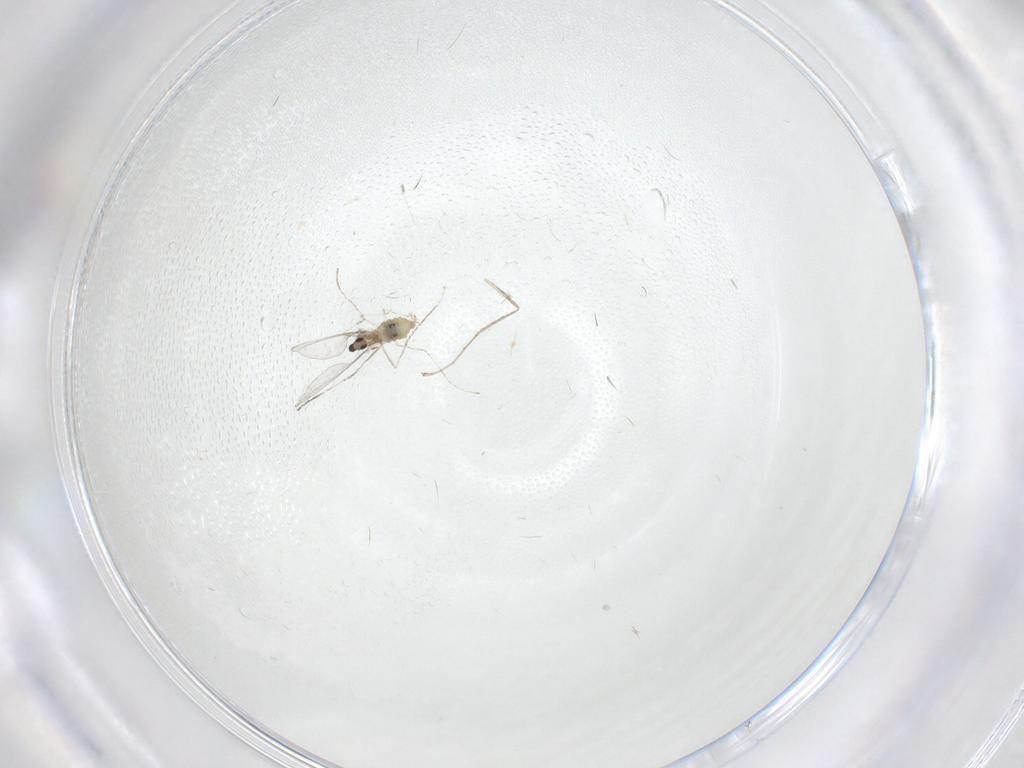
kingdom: Animalia
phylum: Arthropoda
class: Insecta
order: Diptera
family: Cecidomyiidae
